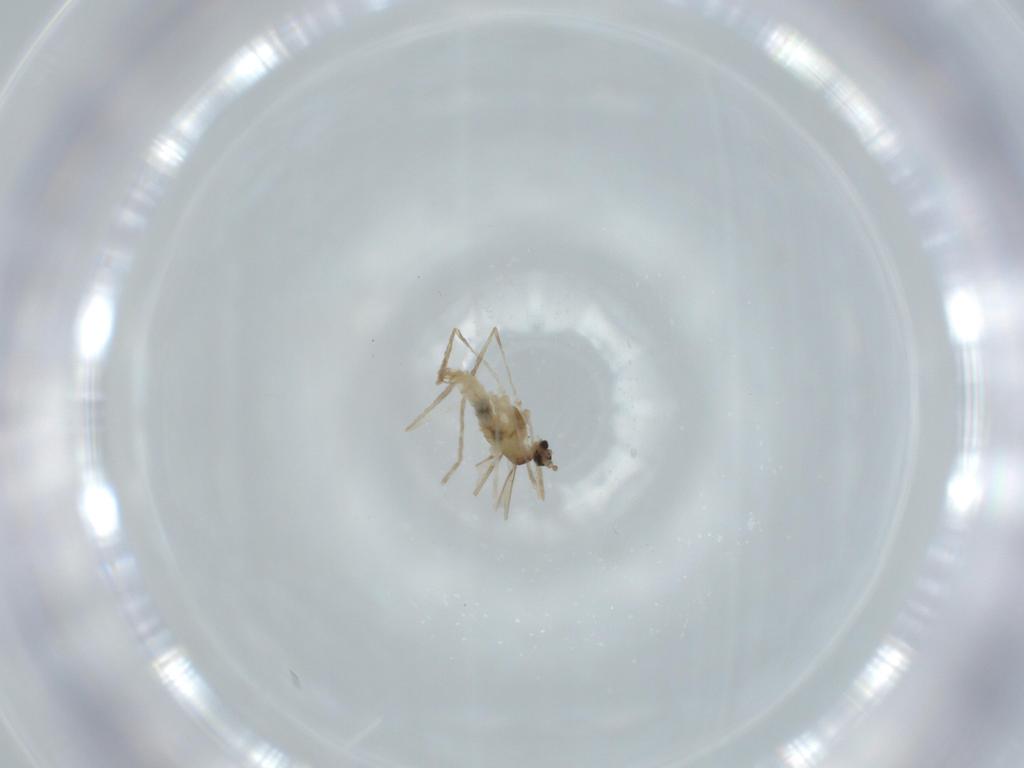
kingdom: Animalia
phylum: Arthropoda
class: Insecta
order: Diptera
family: Cecidomyiidae
